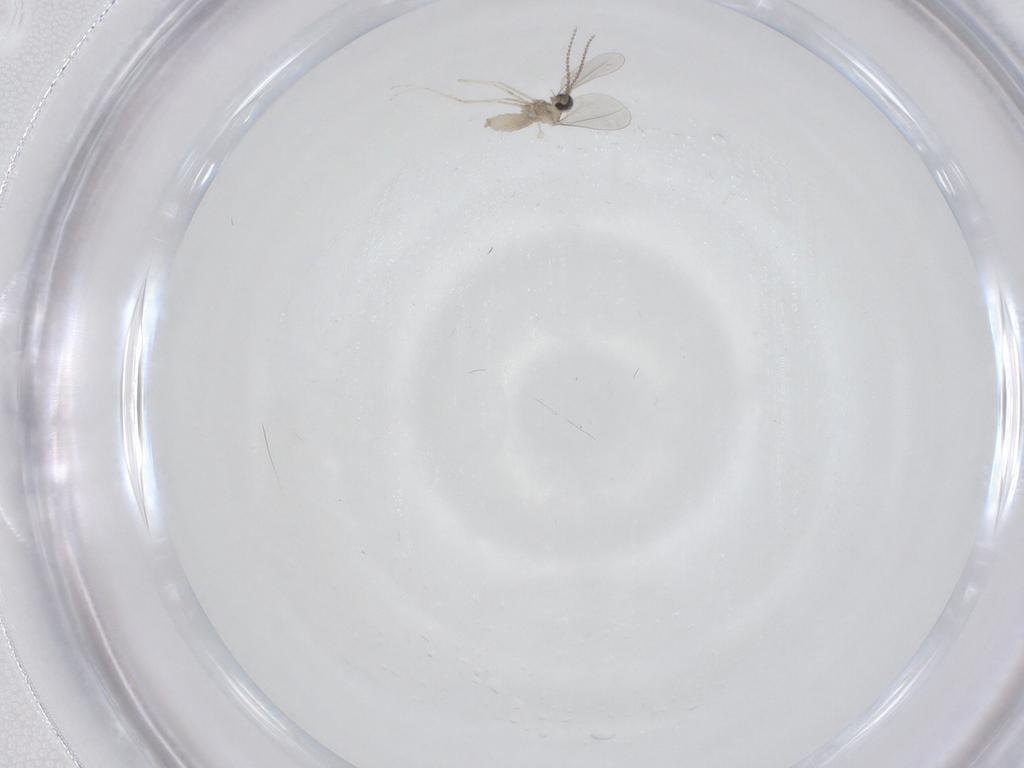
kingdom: Animalia
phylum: Arthropoda
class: Insecta
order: Diptera
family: Cecidomyiidae
